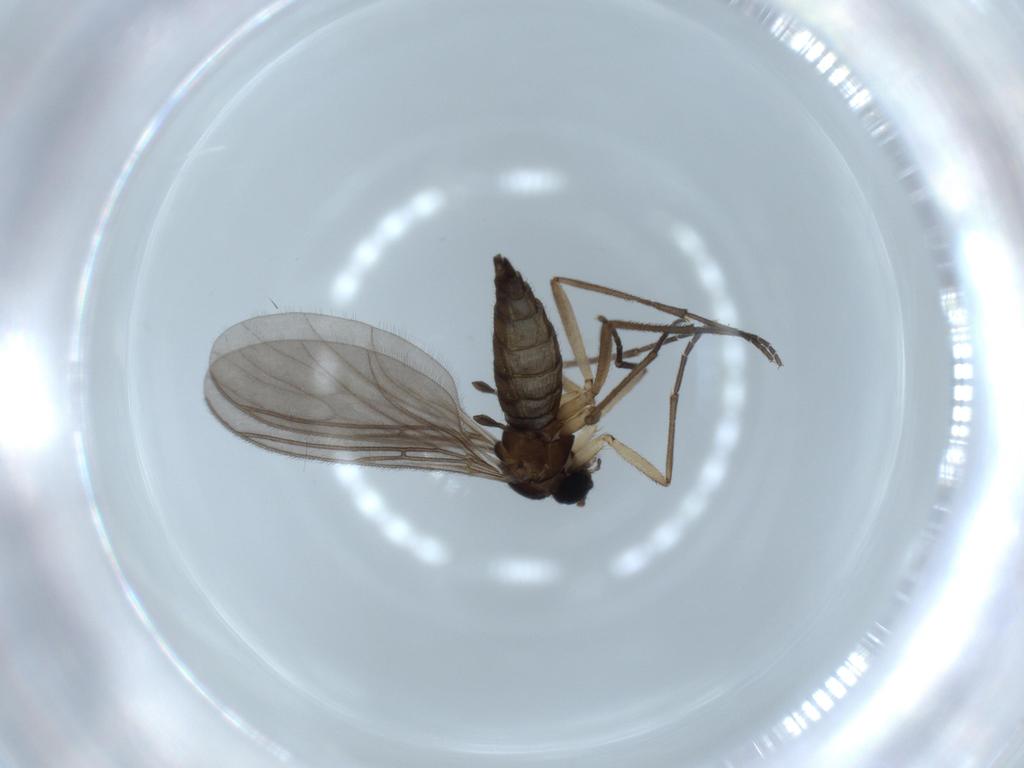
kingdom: Animalia
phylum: Arthropoda
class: Insecta
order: Diptera
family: Sciaridae
